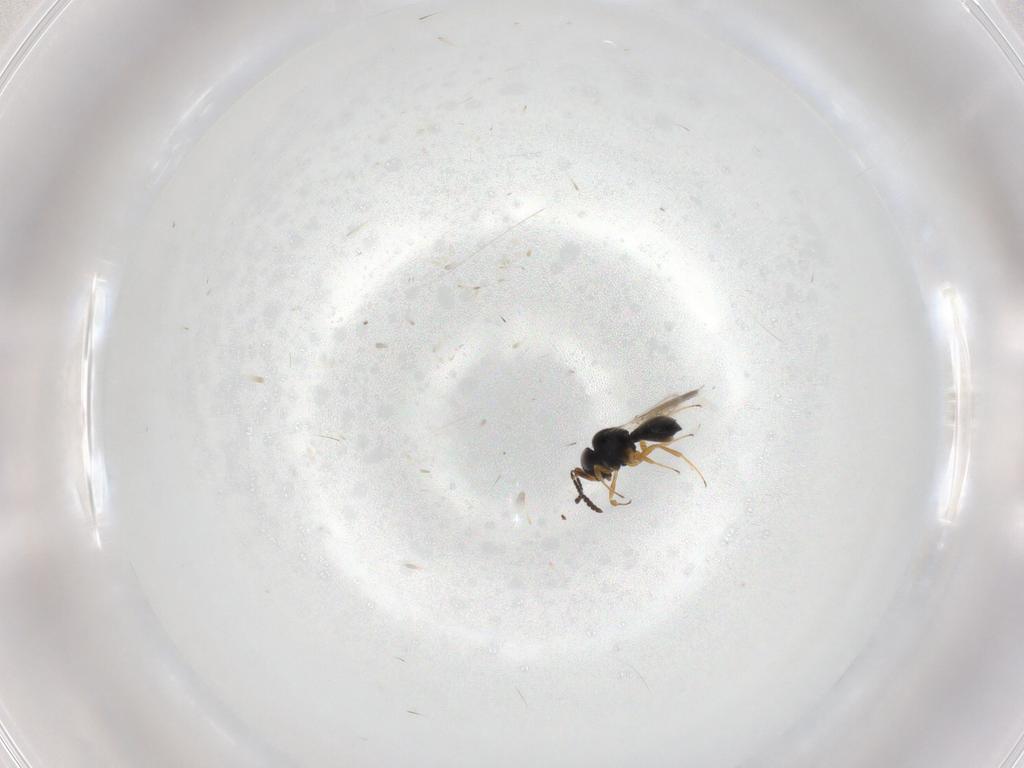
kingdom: Animalia
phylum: Arthropoda
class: Insecta
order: Hymenoptera
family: Scelionidae
